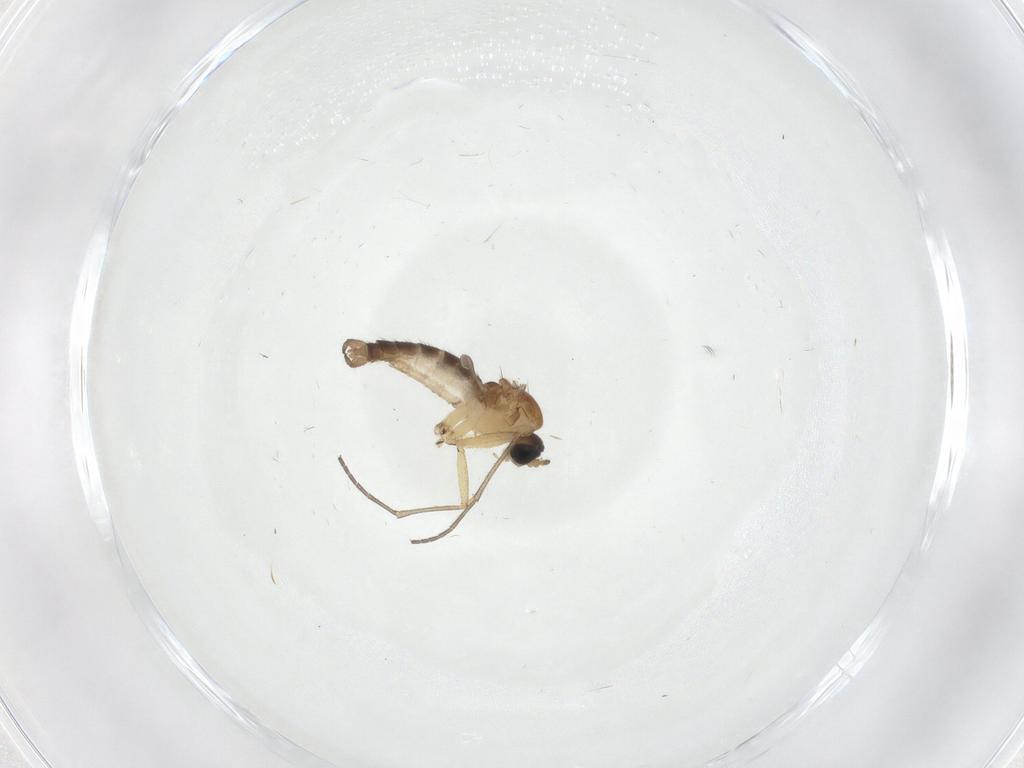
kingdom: Animalia
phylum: Arthropoda
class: Insecta
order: Diptera
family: Sciaridae
